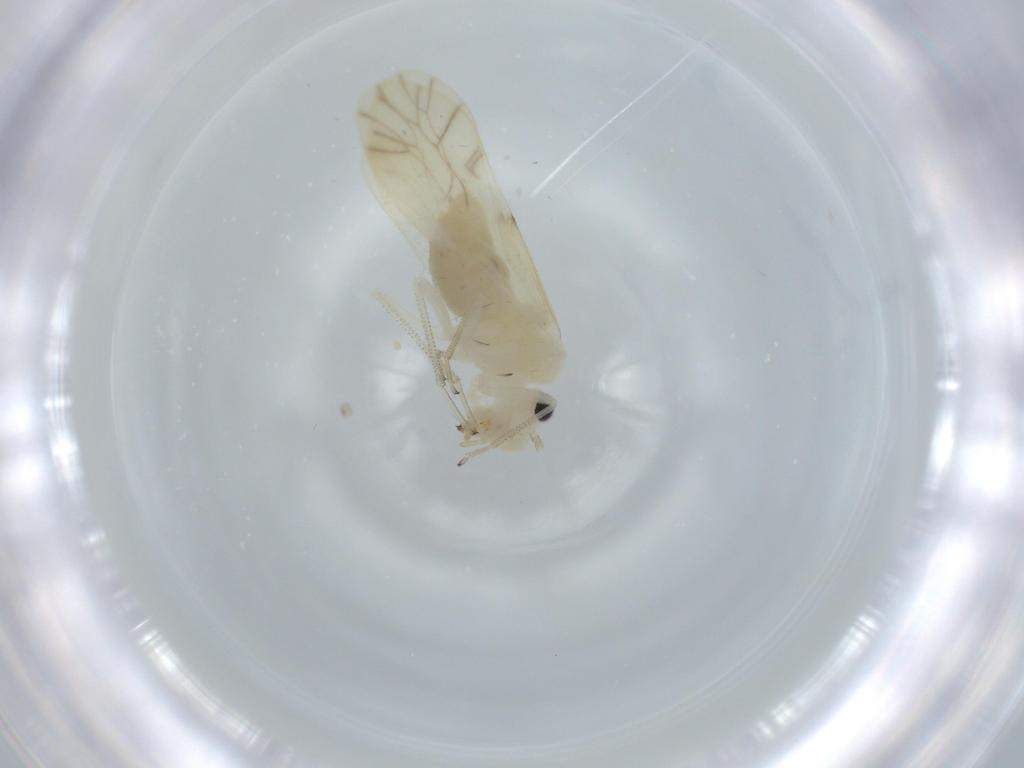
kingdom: Animalia
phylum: Arthropoda
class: Insecta
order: Psocodea
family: Caeciliusidae
